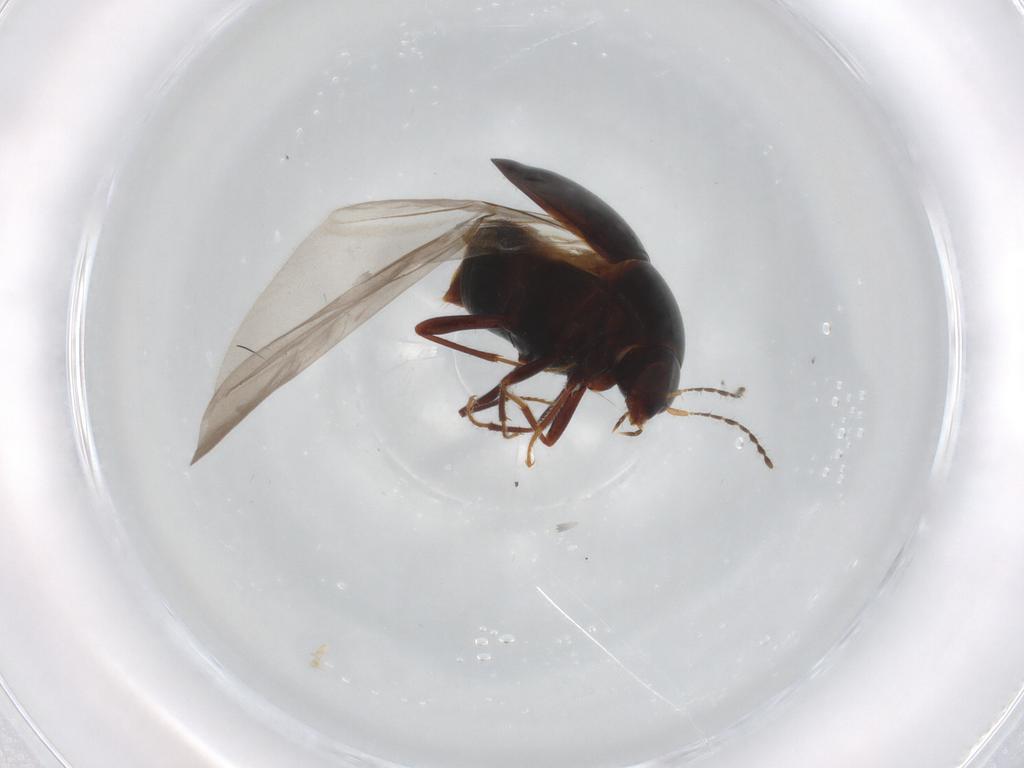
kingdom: Animalia
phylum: Arthropoda
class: Insecta
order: Coleoptera
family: Staphylinidae
